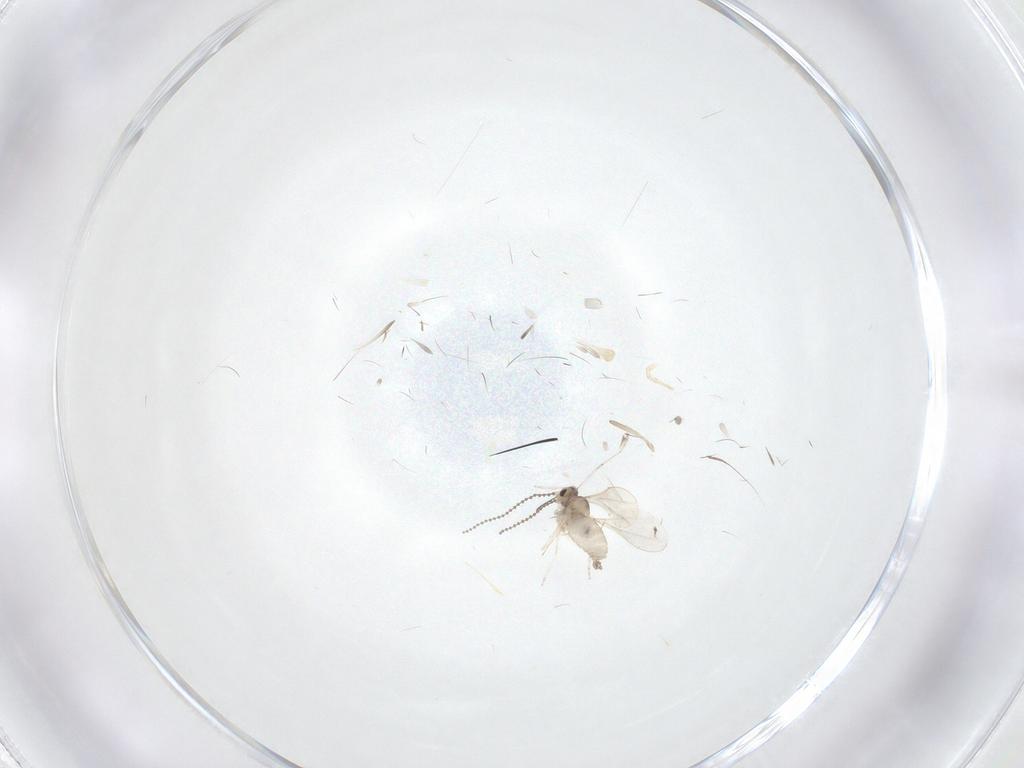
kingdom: Animalia
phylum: Arthropoda
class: Insecta
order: Diptera
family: Cecidomyiidae
